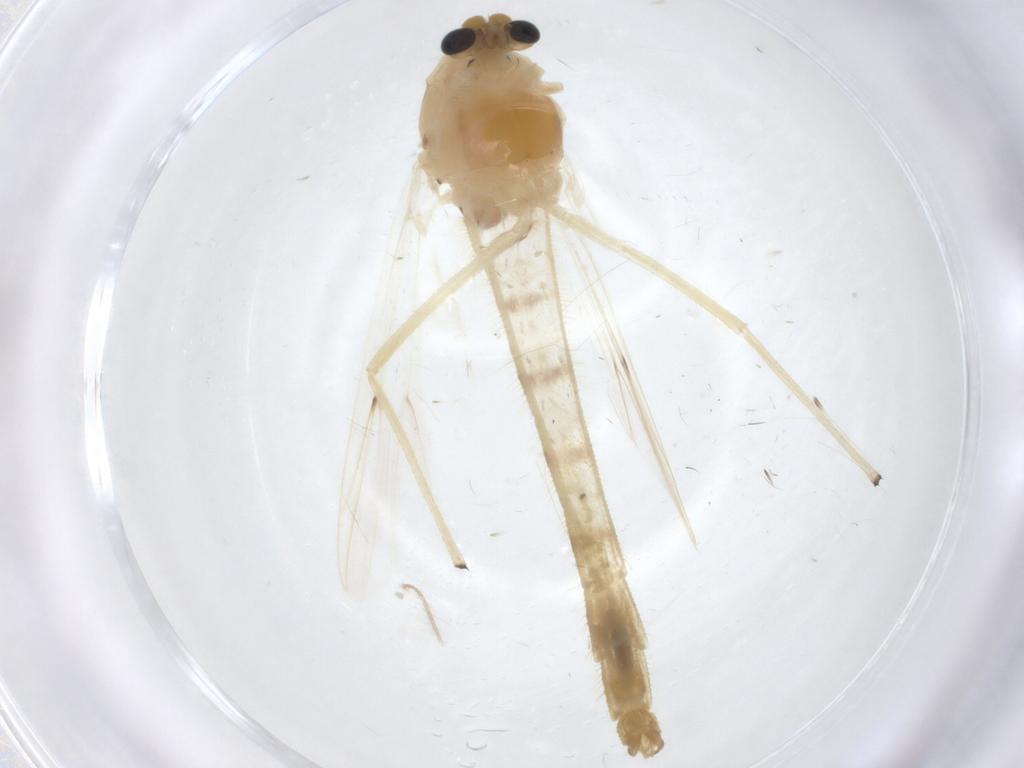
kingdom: Animalia
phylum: Arthropoda
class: Insecta
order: Diptera
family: Chironomidae
